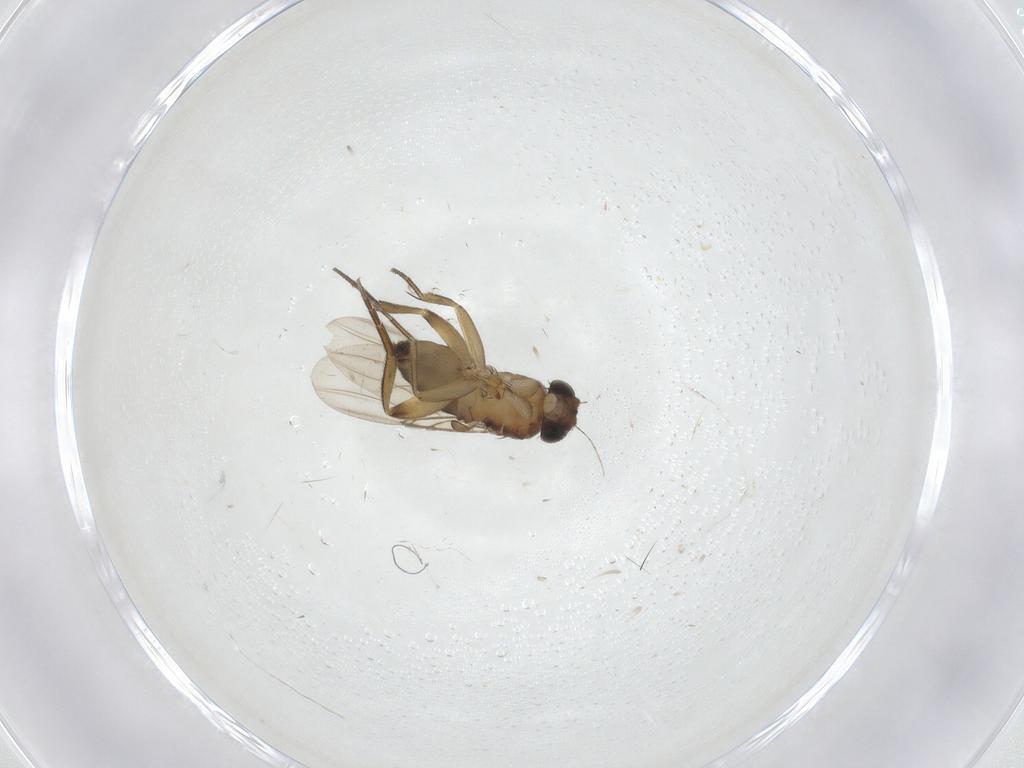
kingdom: Animalia
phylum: Arthropoda
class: Insecta
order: Diptera
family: Phoridae
